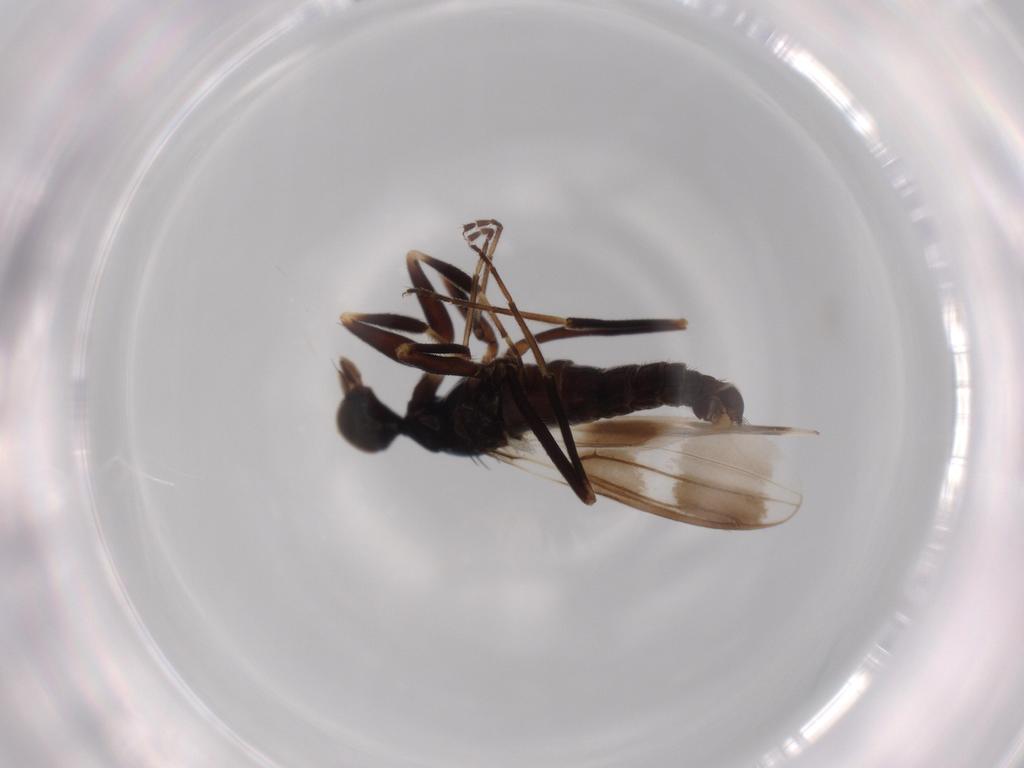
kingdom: Animalia
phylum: Arthropoda
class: Insecta
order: Diptera
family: Hybotidae
